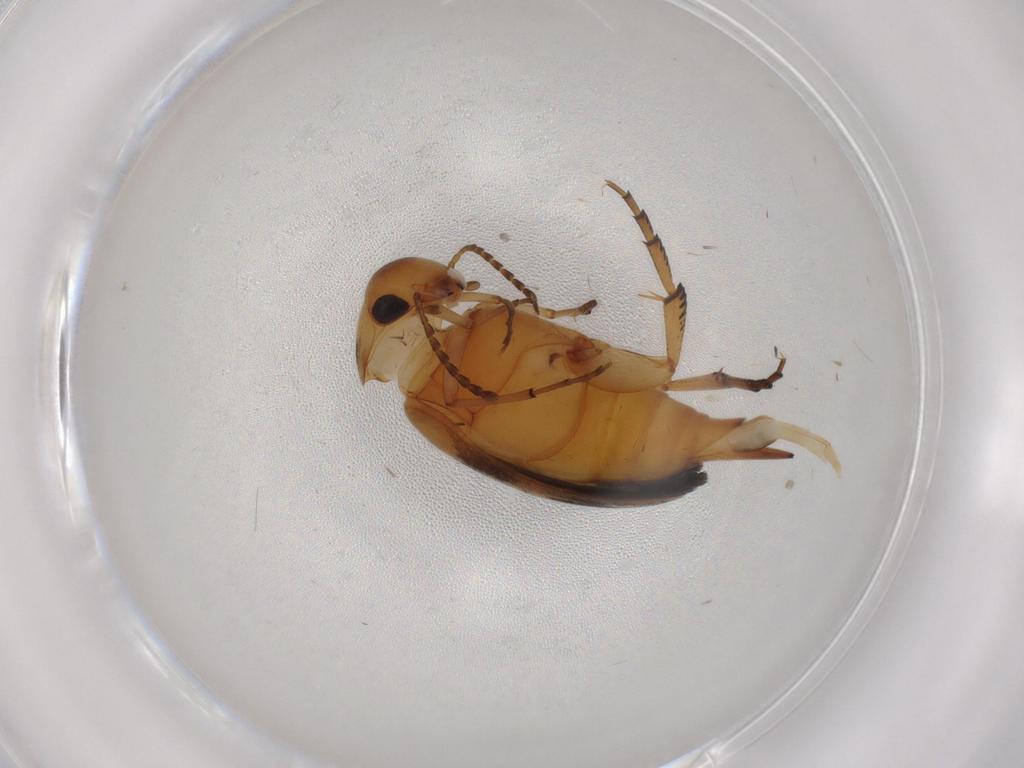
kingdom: Animalia
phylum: Arthropoda
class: Insecta
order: Coleoptera
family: Mordellidae
